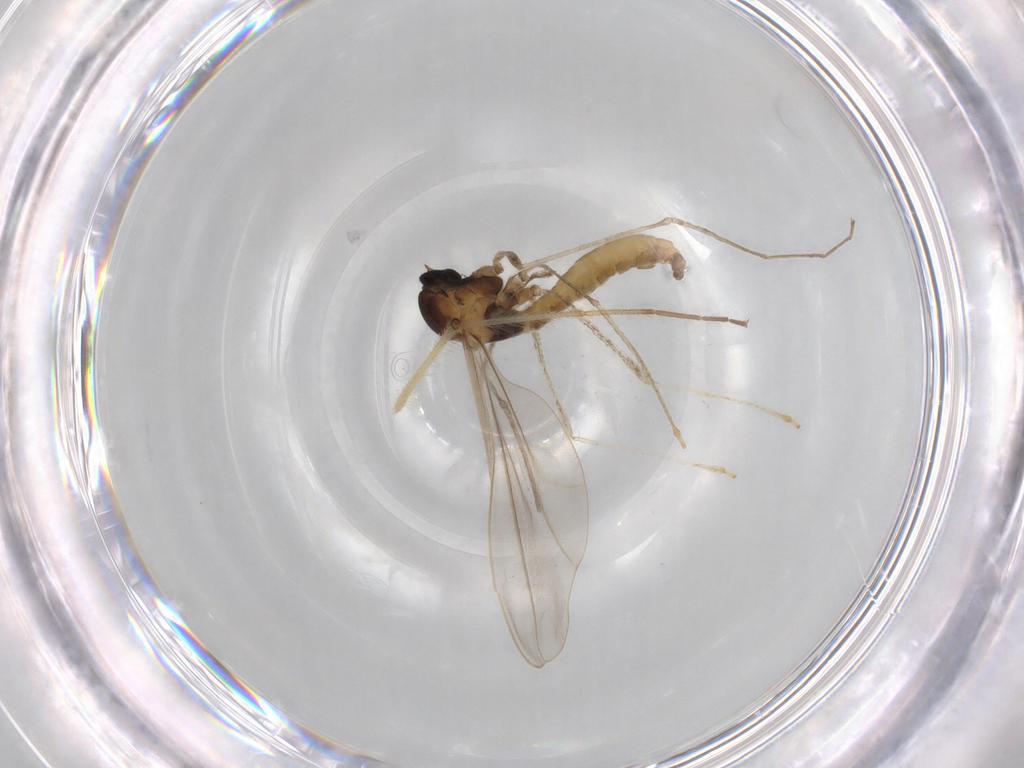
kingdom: Animalia
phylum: Arthropoda
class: Insecta
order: Diptera
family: Cecidomyiidae
